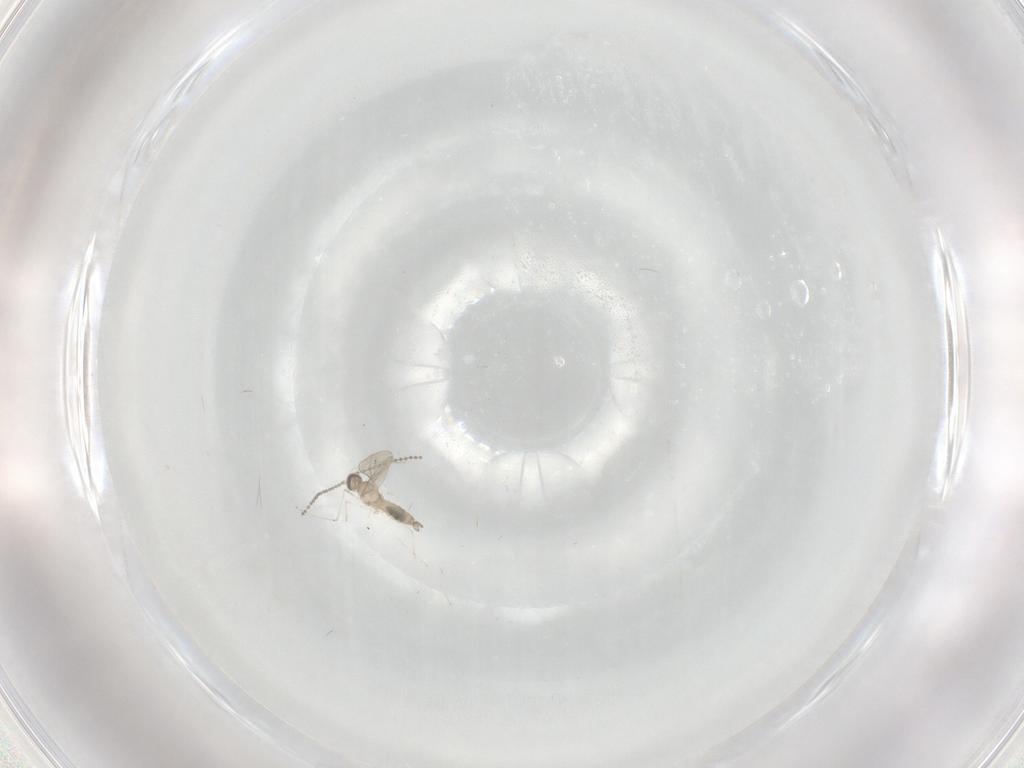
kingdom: Animalia
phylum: Arthropoda
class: Insecta
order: Diptera
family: Cecidomyiidae
